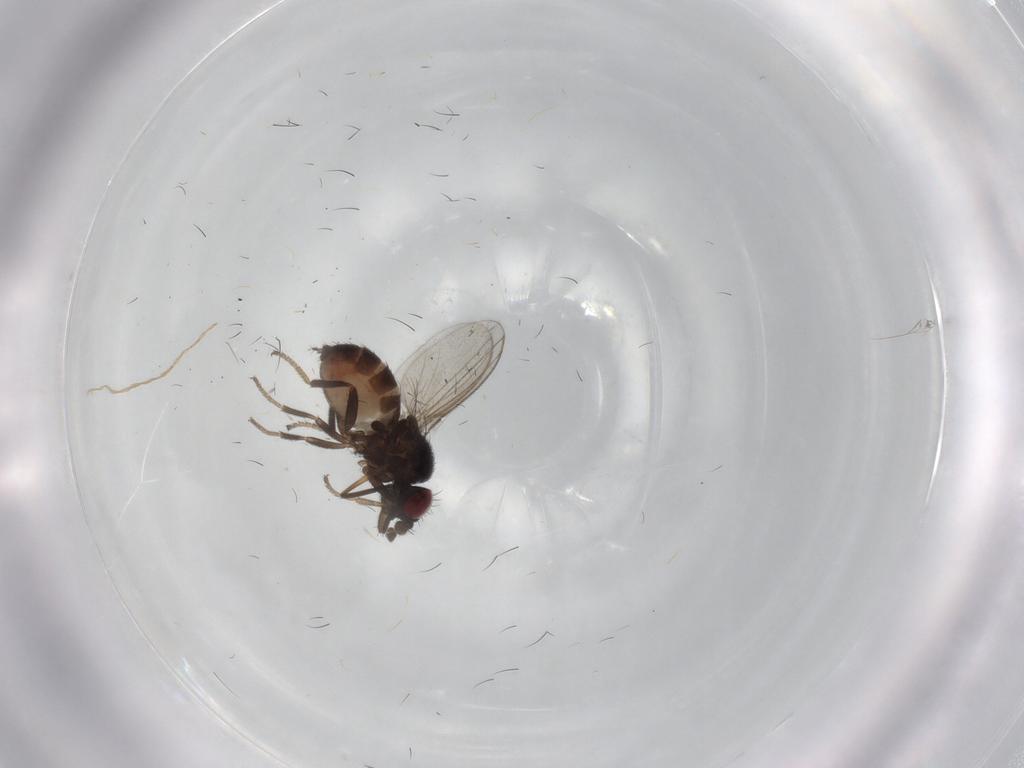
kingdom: Animalia
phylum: Arthropoda
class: Insecta
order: Diptera
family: Milichiidae
